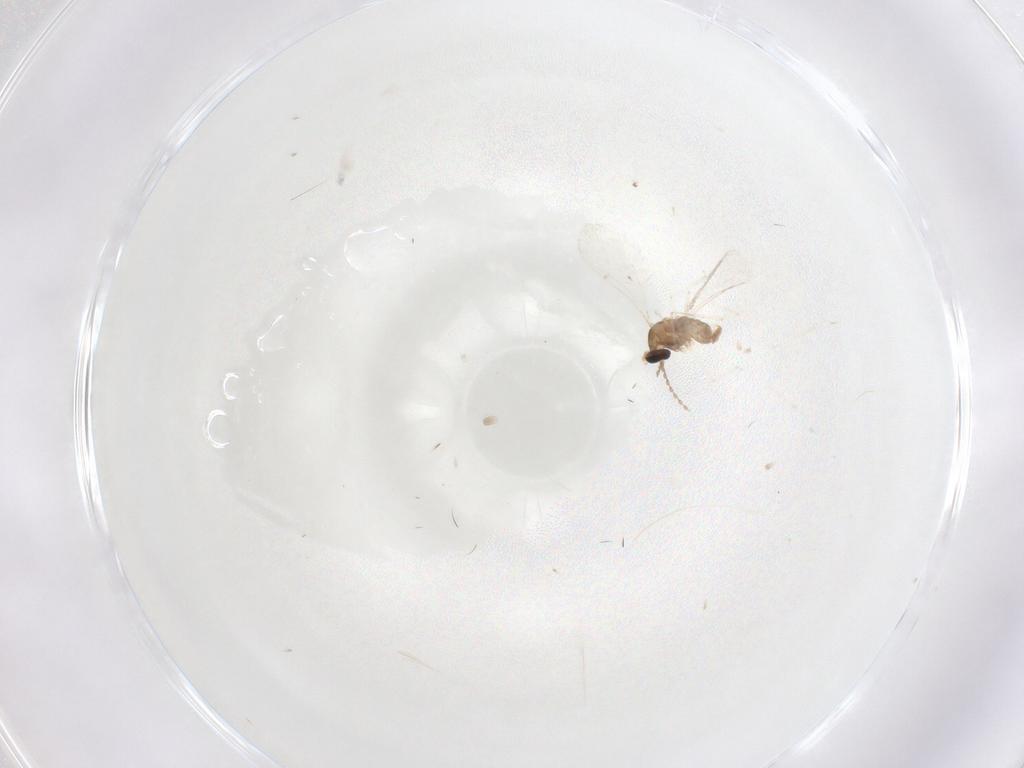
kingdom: Animalia
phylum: Arthropoda
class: Insecta
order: Diptera
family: Cecidomyiidae
